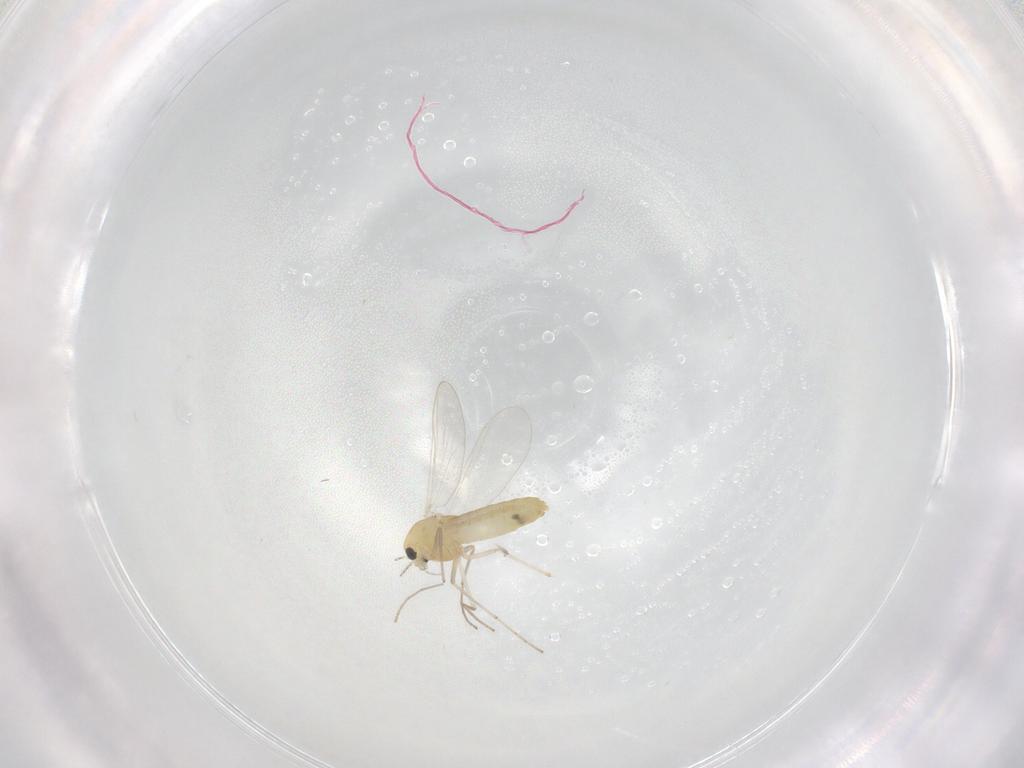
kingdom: Animalia
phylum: Arthropoda
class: Insecta
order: Diptera
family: Chironomidae
